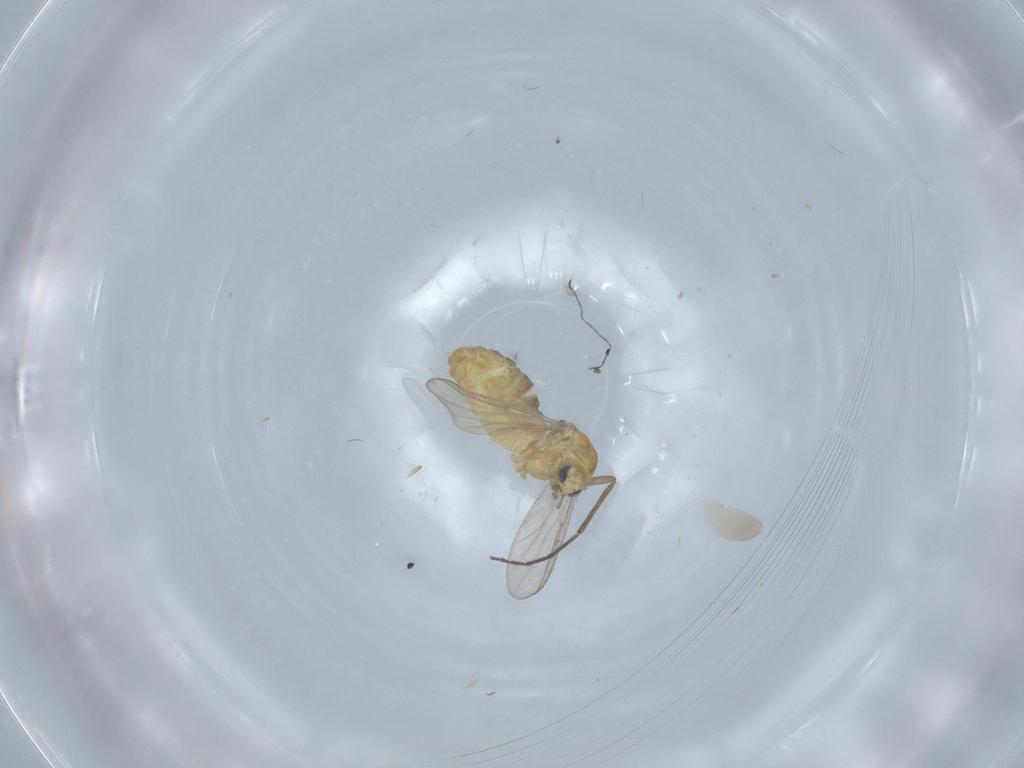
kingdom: Animalia
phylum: Arthropoda
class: Insecta
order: Diptera
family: Chironomidae
